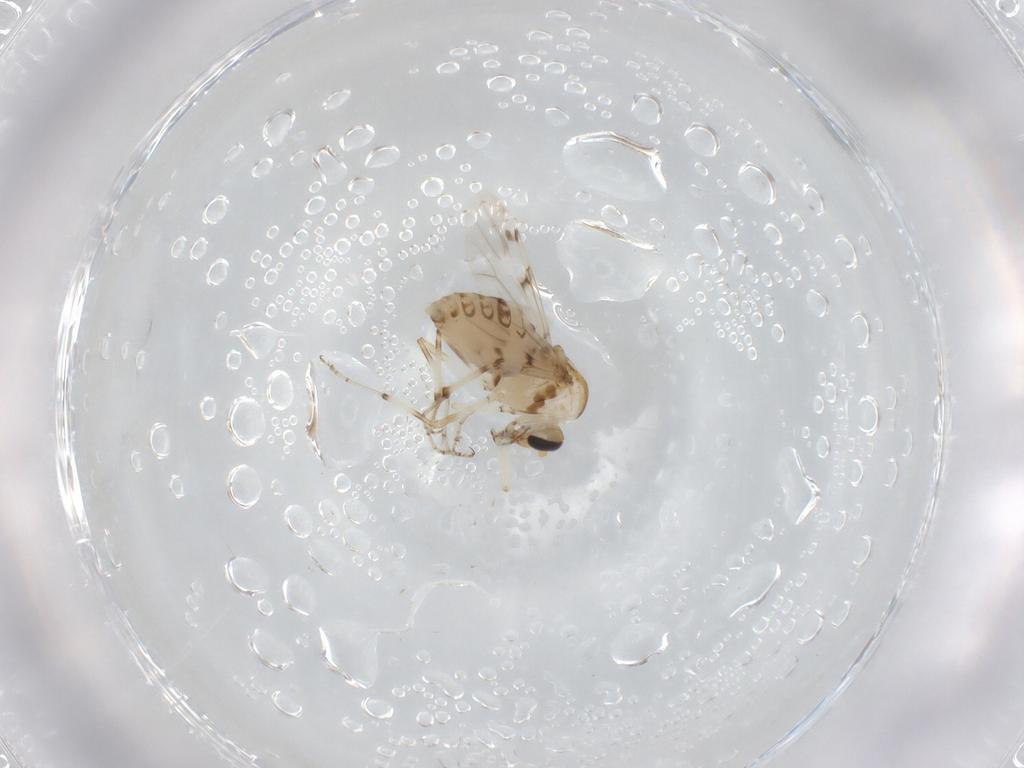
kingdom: Animalia
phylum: Arthropoda
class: Insecta
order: Diptera
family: Ceratopogonidae
